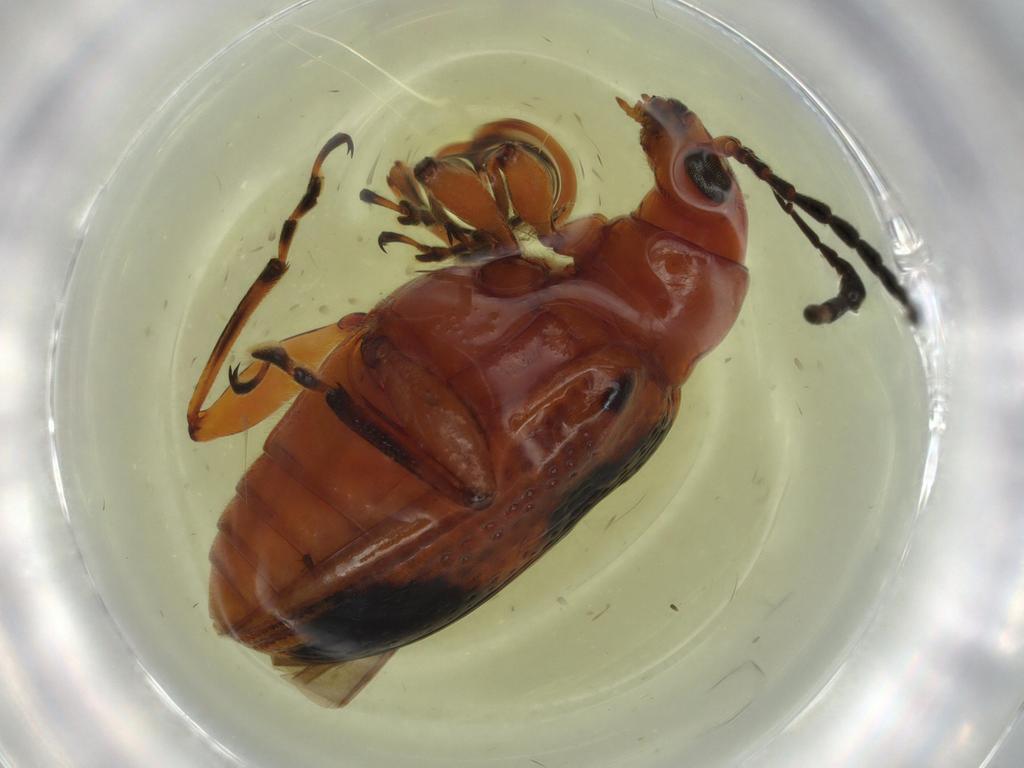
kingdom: Animalia
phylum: Arthropoda
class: Insecta
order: Coleoptera
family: Chrysomelidae
